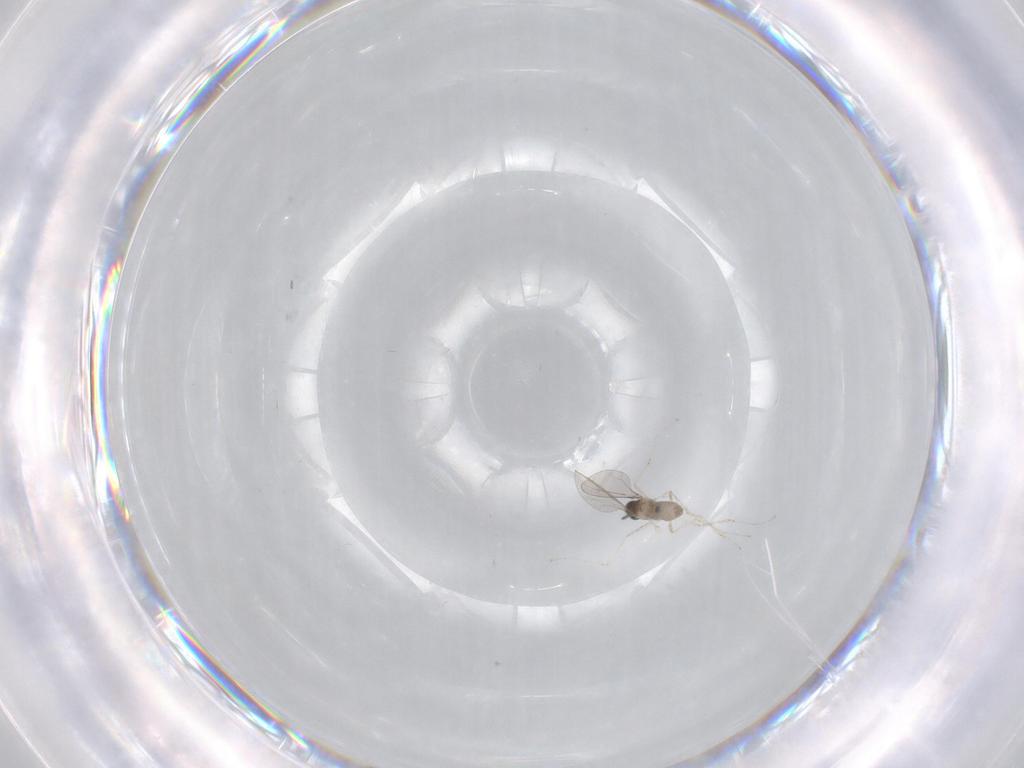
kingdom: Animalia
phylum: Arthropoda
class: Insecta
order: Diptera
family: Cecidomyiidae
